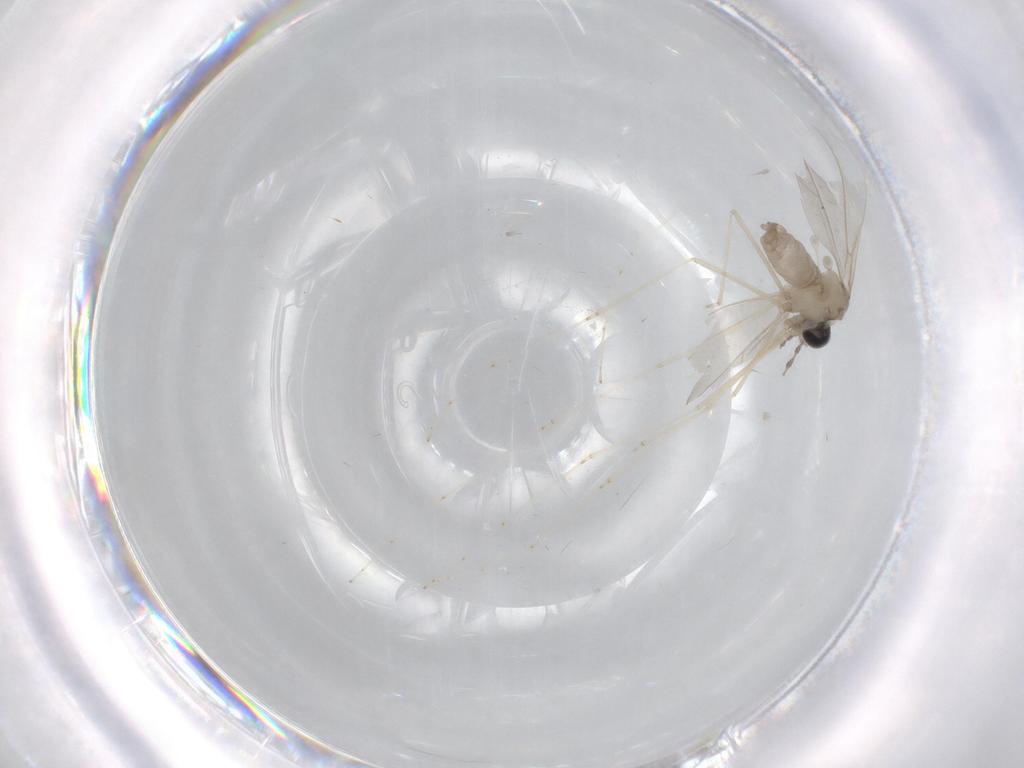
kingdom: Animalia
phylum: Arthropoda
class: Insecta
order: Diptera
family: Cecidomyiidae
